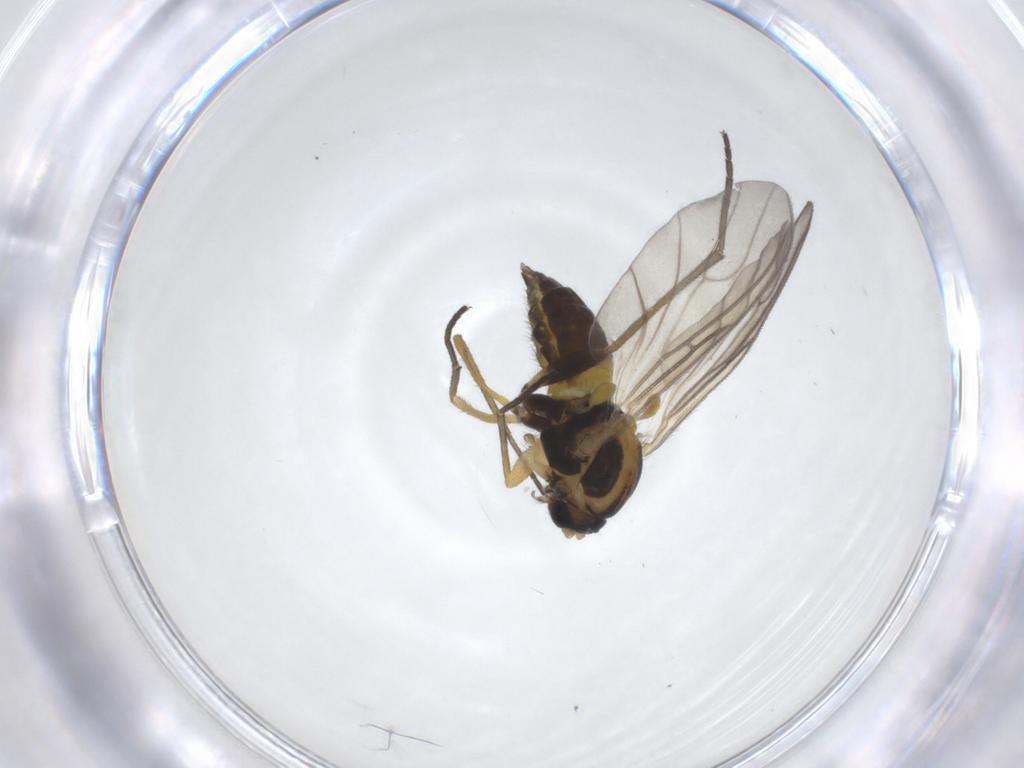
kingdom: Animalia
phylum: Arthropoda
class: Insecta
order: Diptera
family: Sciaridae
